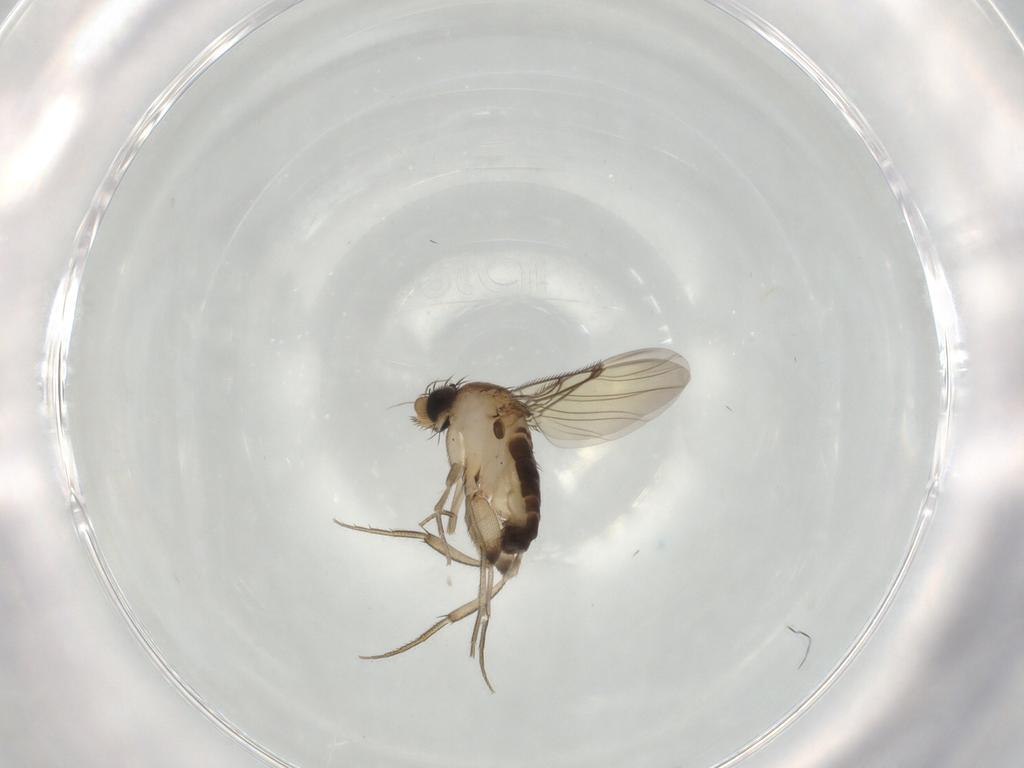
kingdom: Animalia
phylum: Arthropoda
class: Insecta
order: Diptera
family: Phoridae
